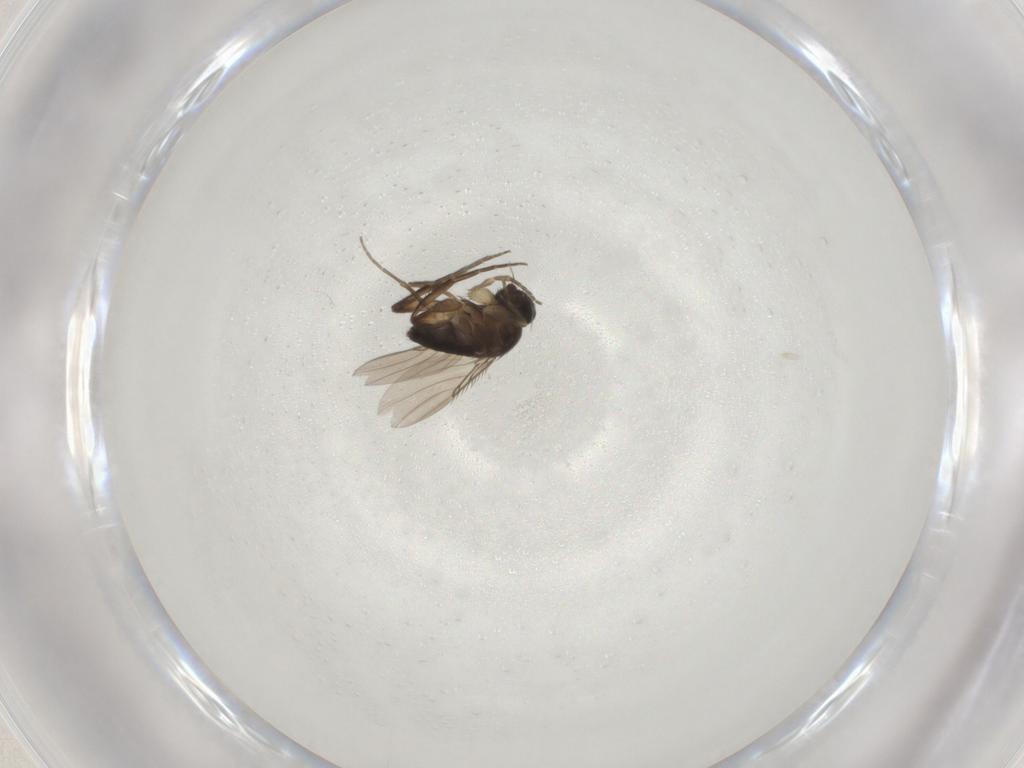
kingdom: Animalia
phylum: Arthropoda
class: Insecta
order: Diptera
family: Phoridae
